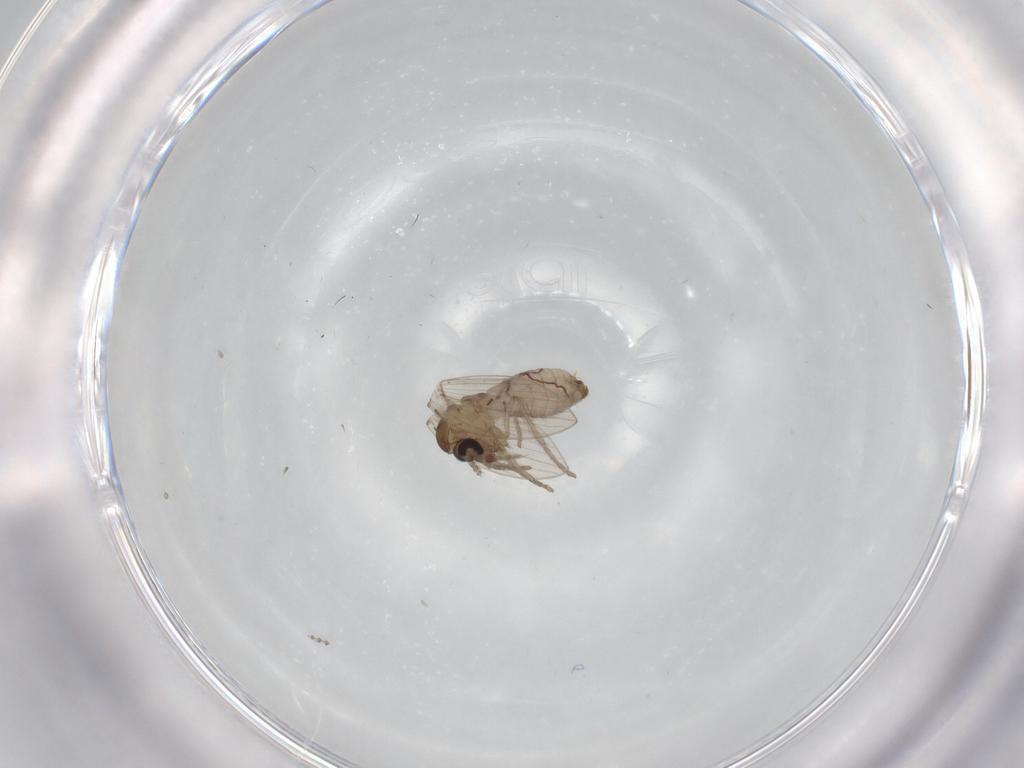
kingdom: Animalia
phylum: Arthropoda
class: Insecta
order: Diptera
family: Psychodidae
